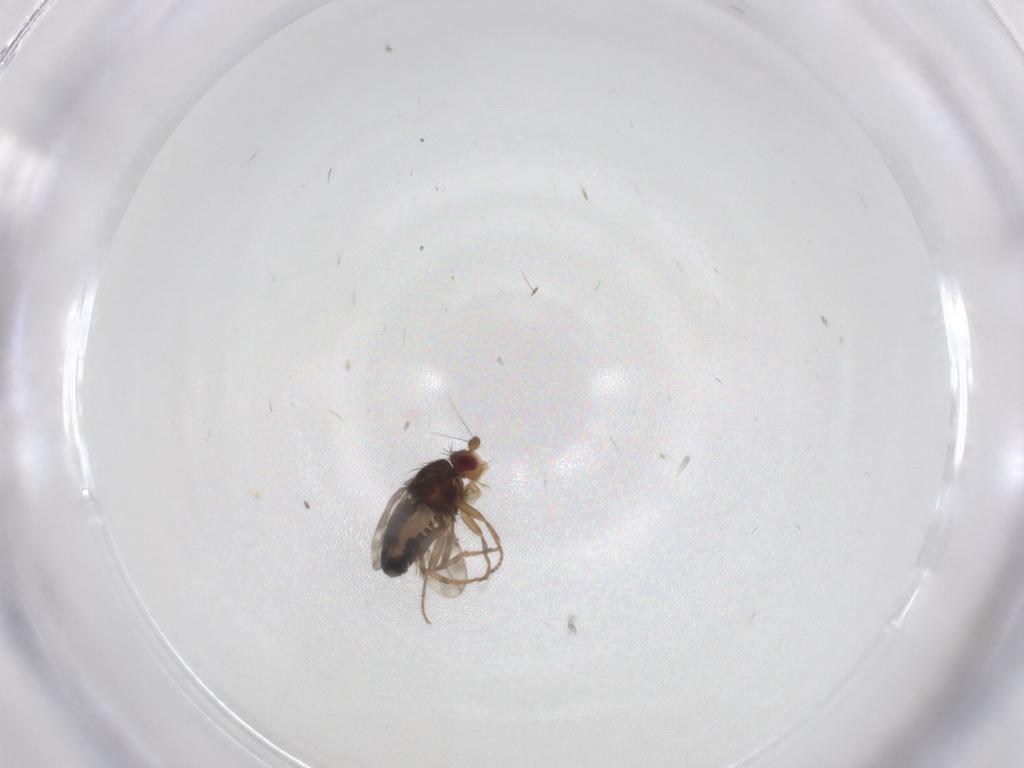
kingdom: Animalia
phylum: Arthropoda
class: Insecta
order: Diptera
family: Sphaeroceridae
